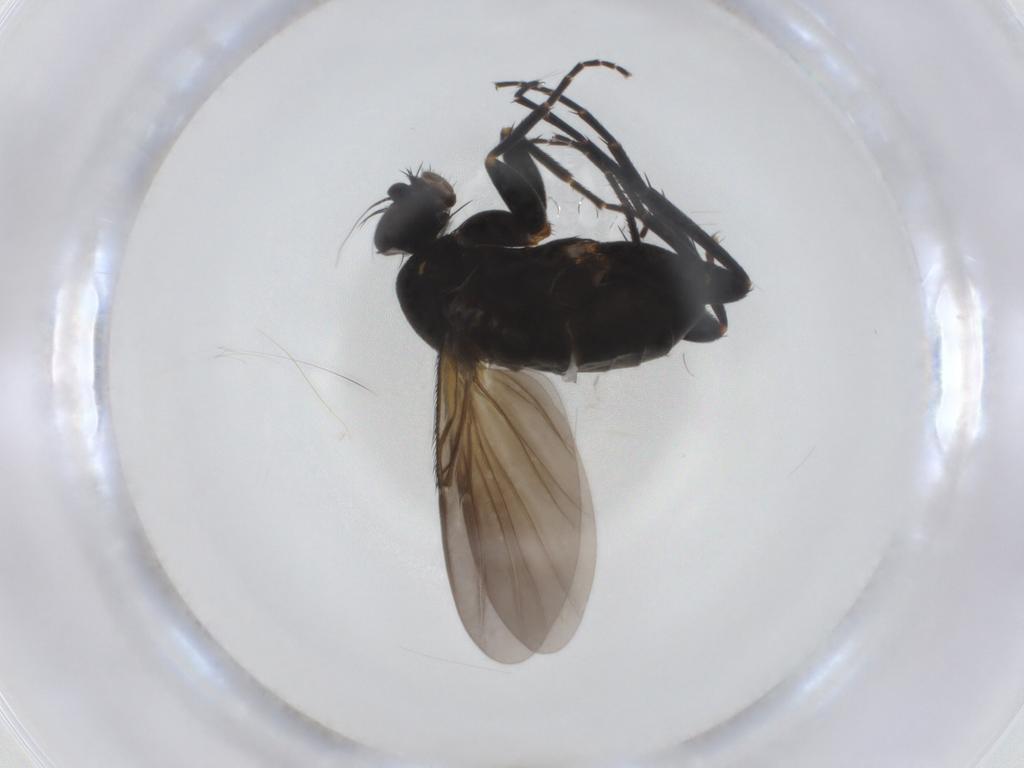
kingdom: Animalia
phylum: Arthropoda
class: Insecta
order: Diptera
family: Phoridae
